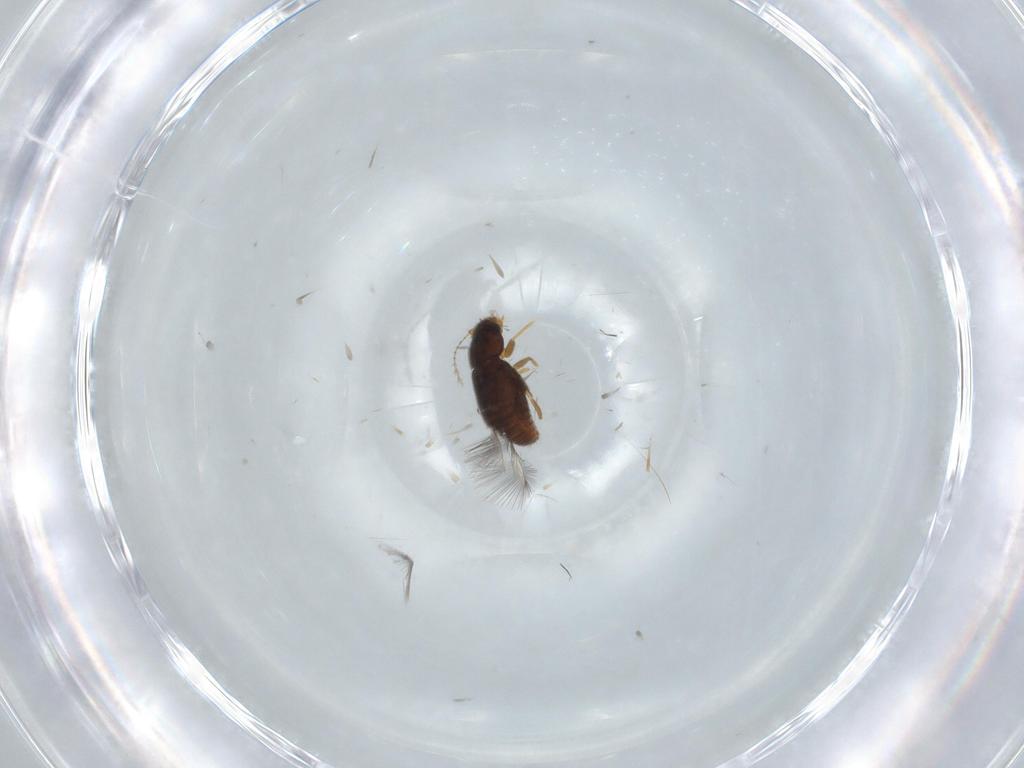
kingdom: Animalia
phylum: Arthropoda
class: Insecta
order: Coleoptera
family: Ptiliidae
